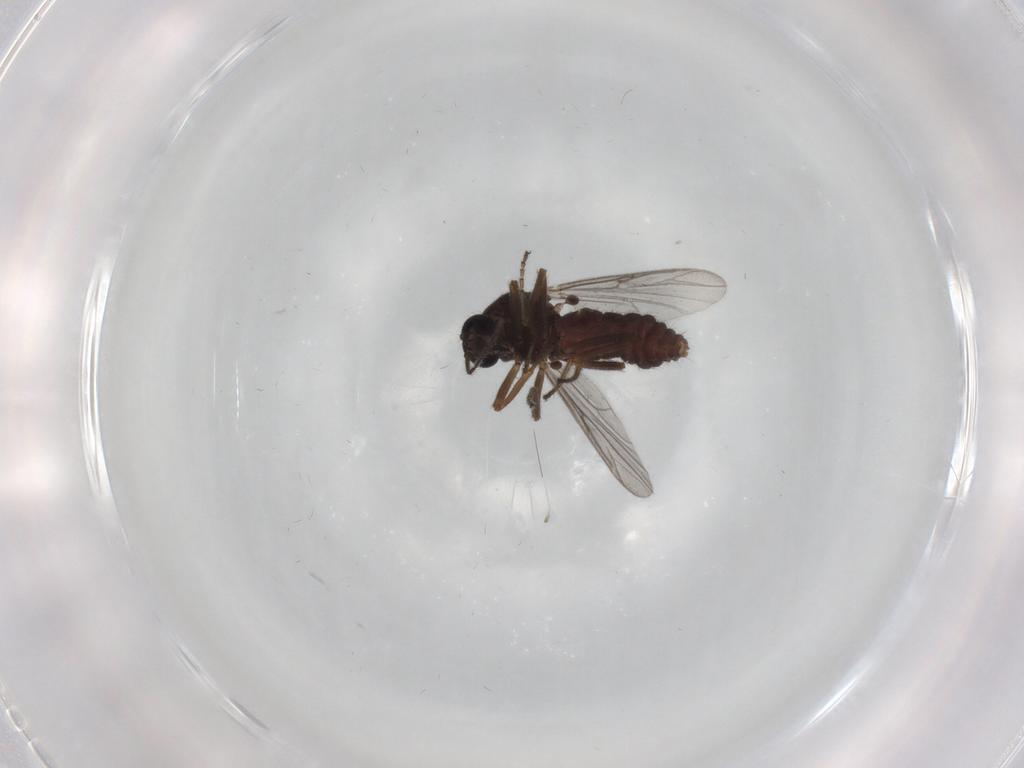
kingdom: Animalia
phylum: Arthropoda
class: Insecta
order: Diptera
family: Ceratopogonidae
